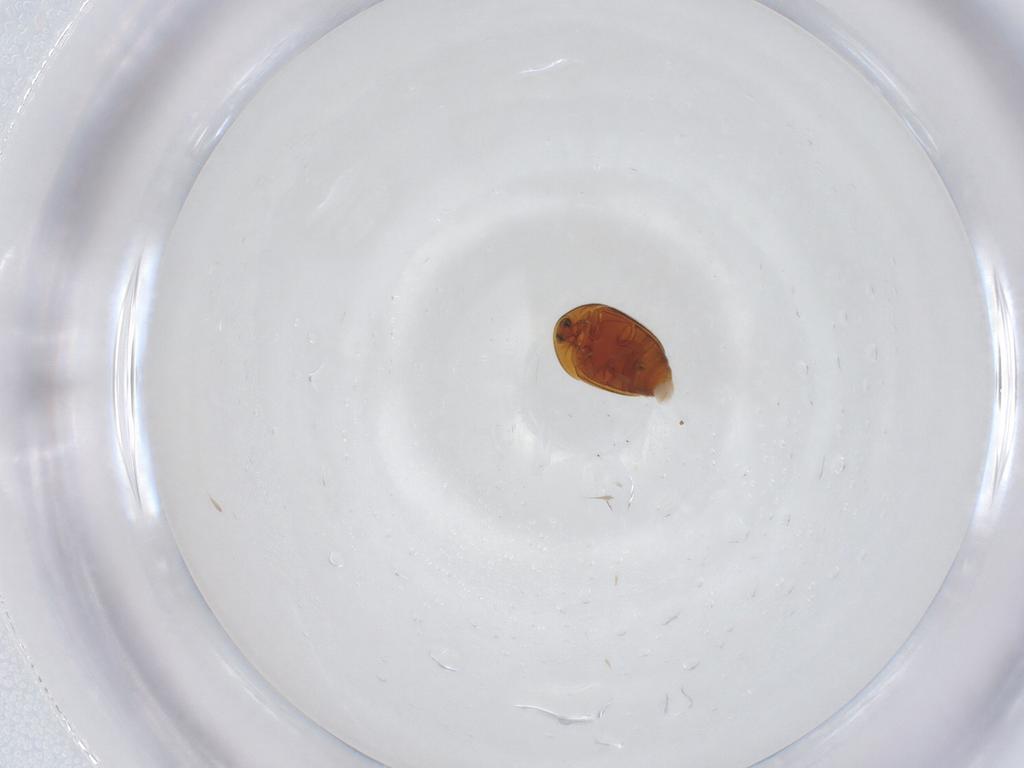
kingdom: Animalia
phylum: Arthropoda
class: Insecta
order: Coleoptera
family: Corylophidae
